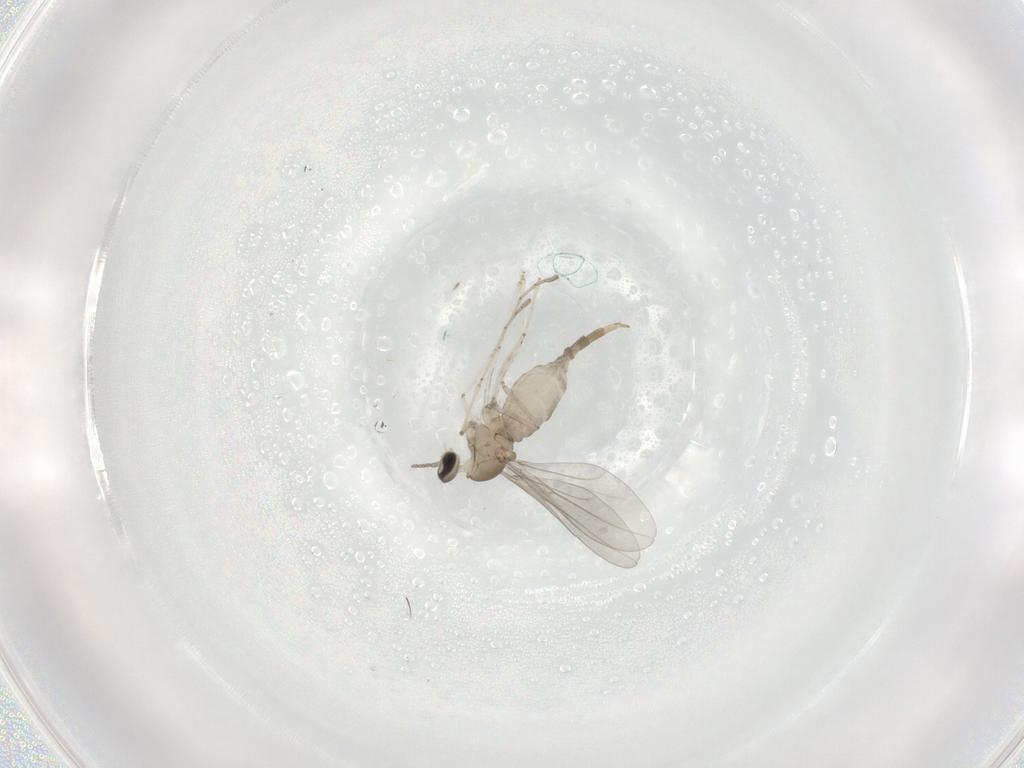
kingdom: Animalia
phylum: Arthropoda
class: Insecta
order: Diptera
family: Cecidomyiidae
